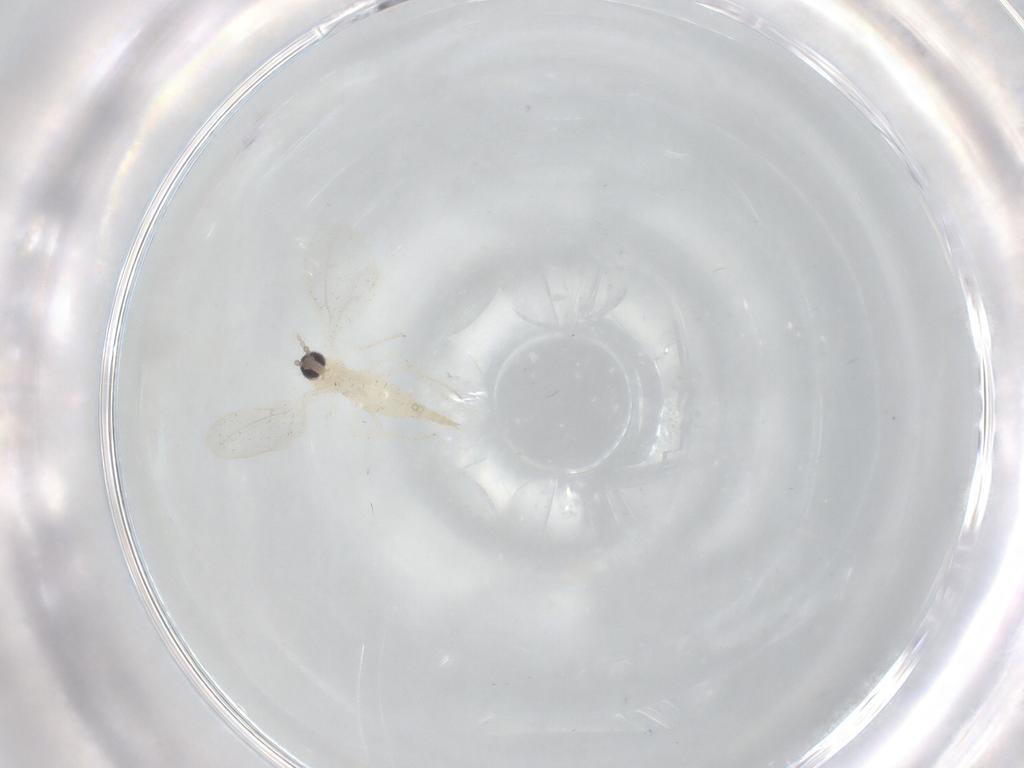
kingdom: Animalia
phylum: Arthropoda
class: Insecta
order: Diptera
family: Cecidomyiidae
